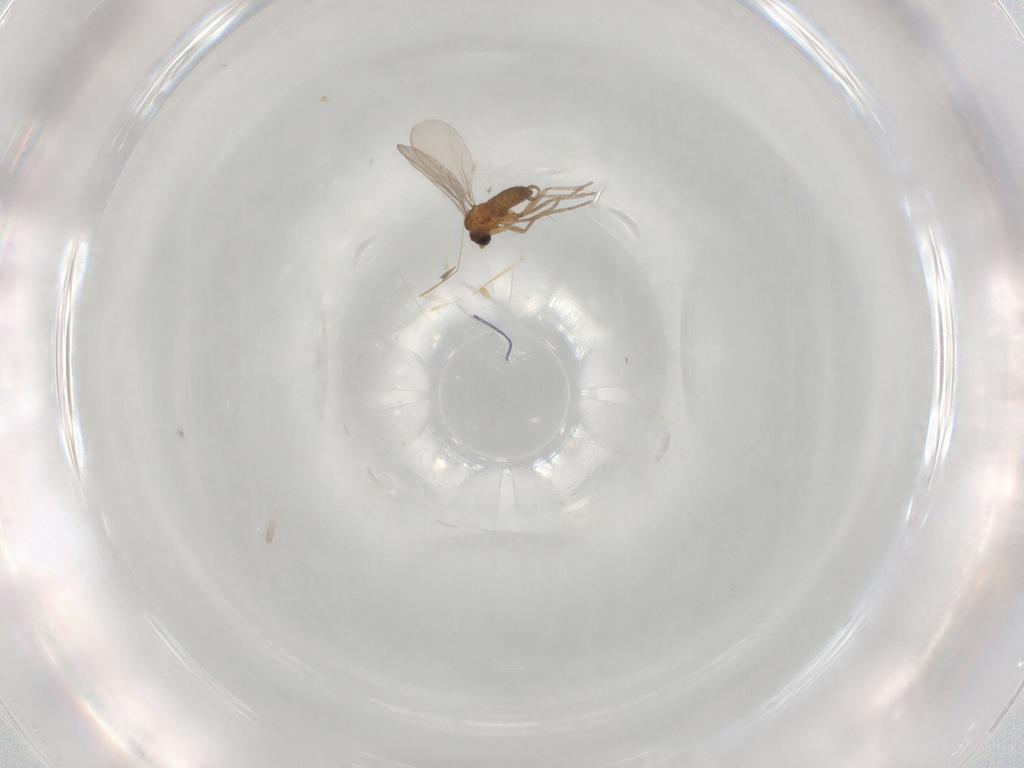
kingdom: Animalia
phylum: Arthropoda
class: Insecta
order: Diptera
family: Sciaridae
